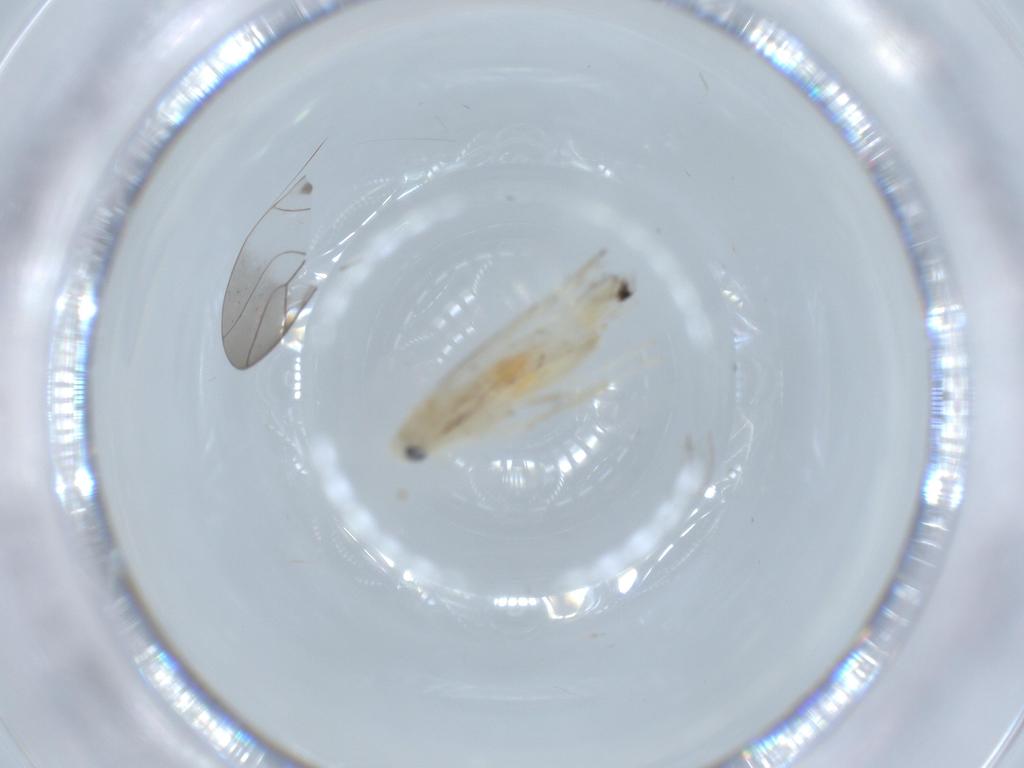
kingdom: Animalia
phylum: Arthropoda
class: Insecta
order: Lepidoptera
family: Gracillariidae
